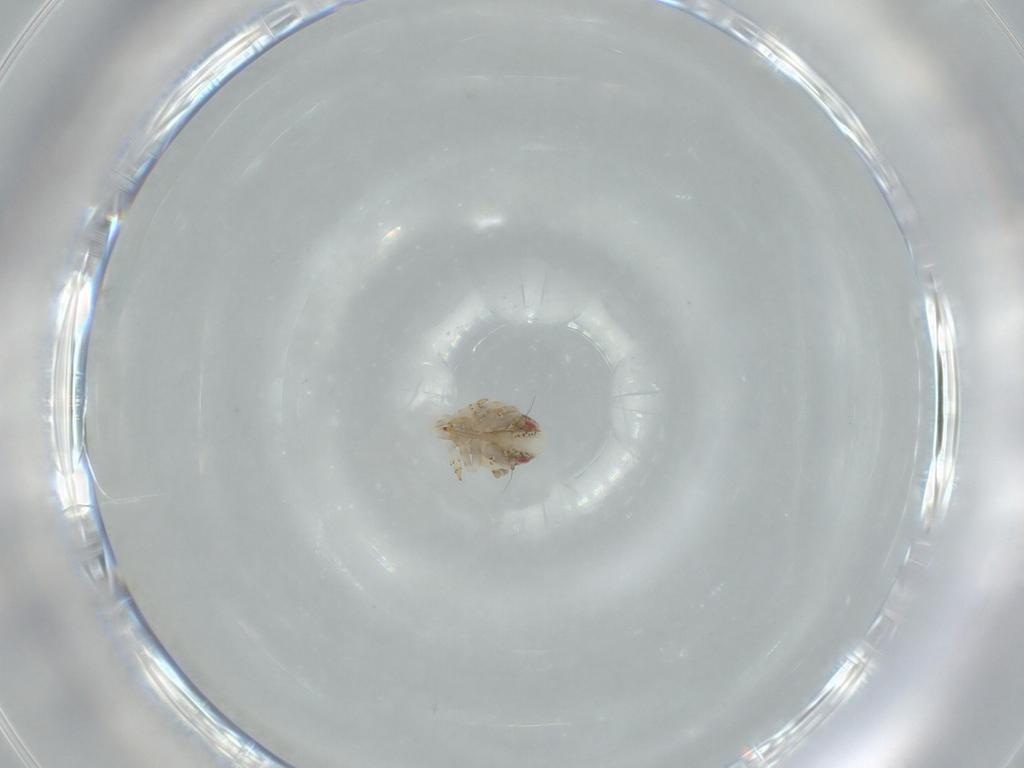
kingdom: Animalia
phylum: Arthropoda
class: Insecta
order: Hemiptera
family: Acanaloniidae
